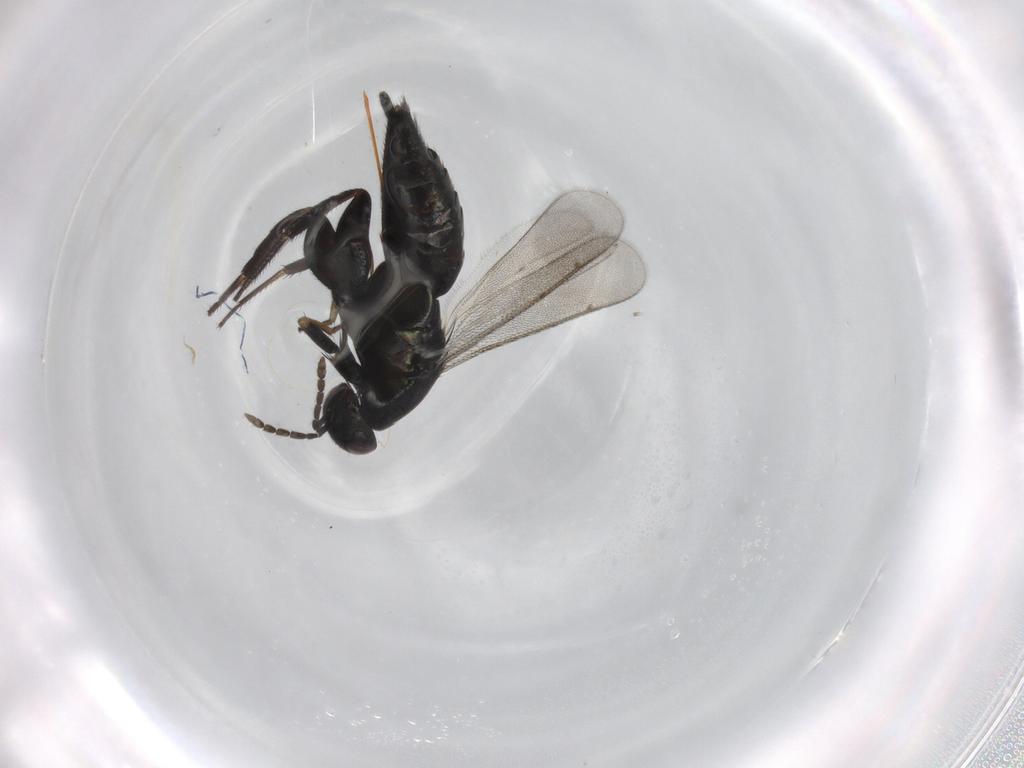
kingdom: Animalia
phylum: Arthropoda
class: Insecta
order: Hymenoptera
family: Eulophidae
